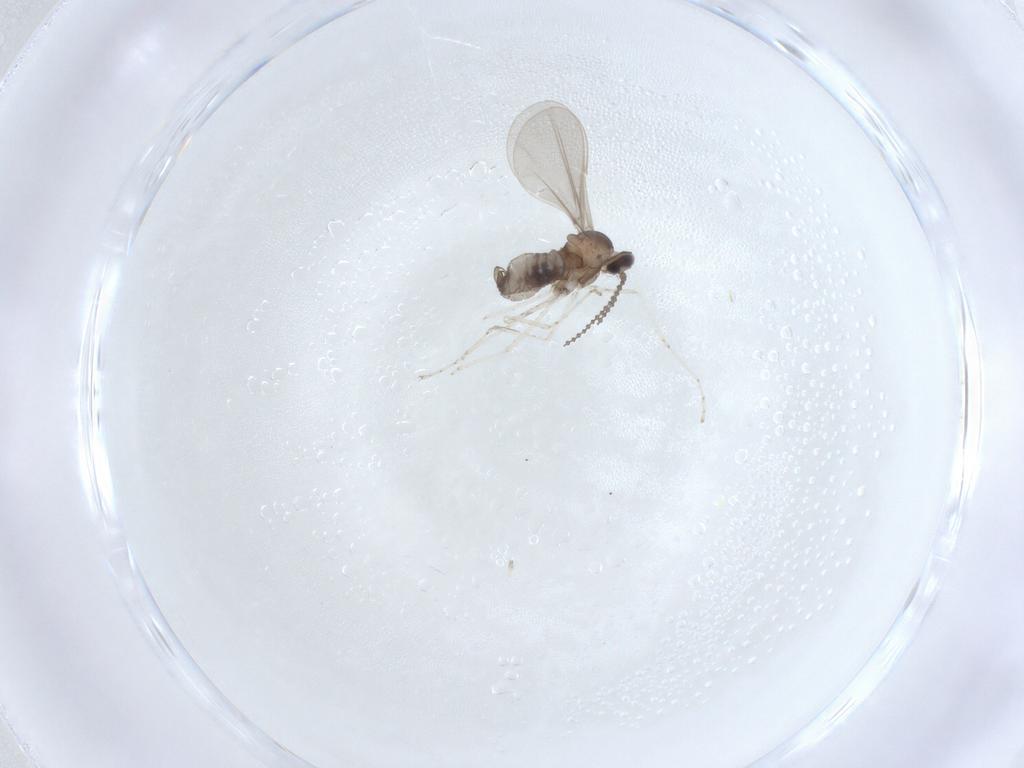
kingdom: Animalia
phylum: Arthropoda
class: Insecta
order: Diptera
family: Cecidomyiidae
